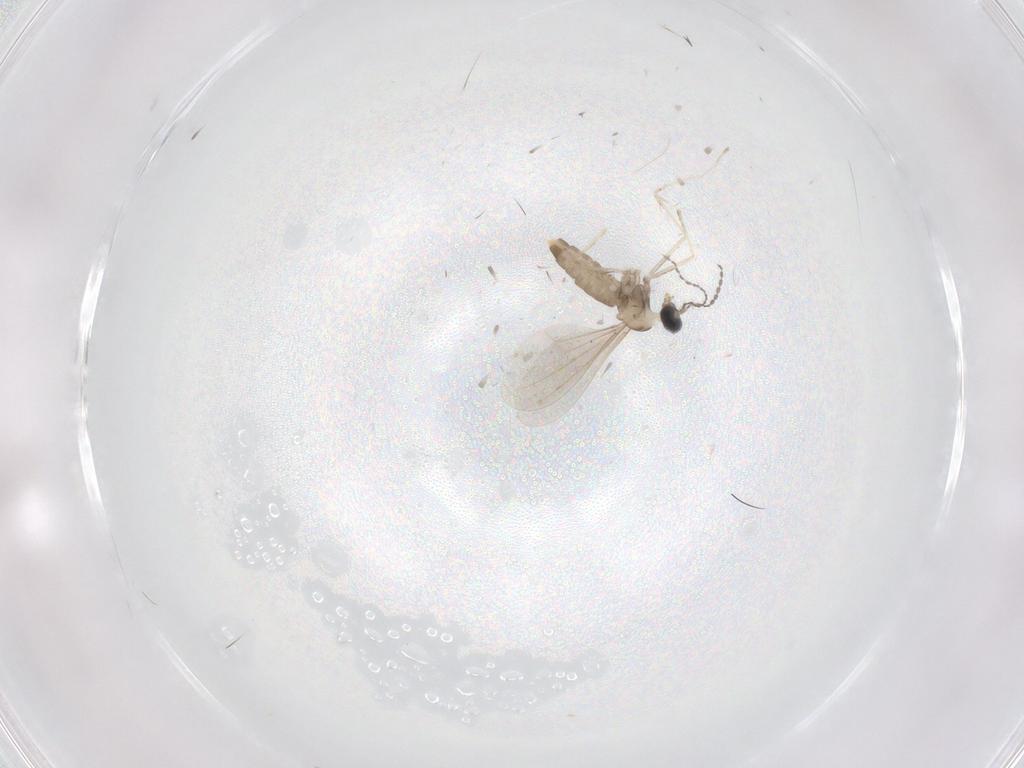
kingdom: Animalia
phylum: Arthropoda
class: Insecta
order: Diptera
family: Cecidomyiidae
